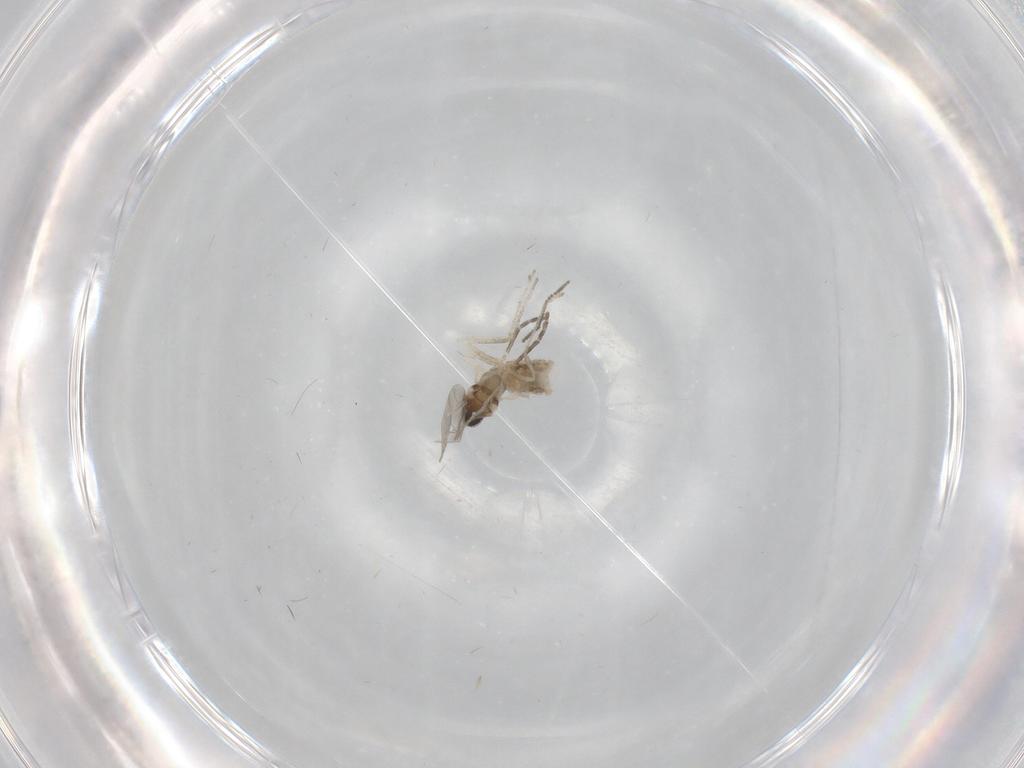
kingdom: Animalia
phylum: Arthropoda
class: Insecta
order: Diptera
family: Cecidomyiidae
